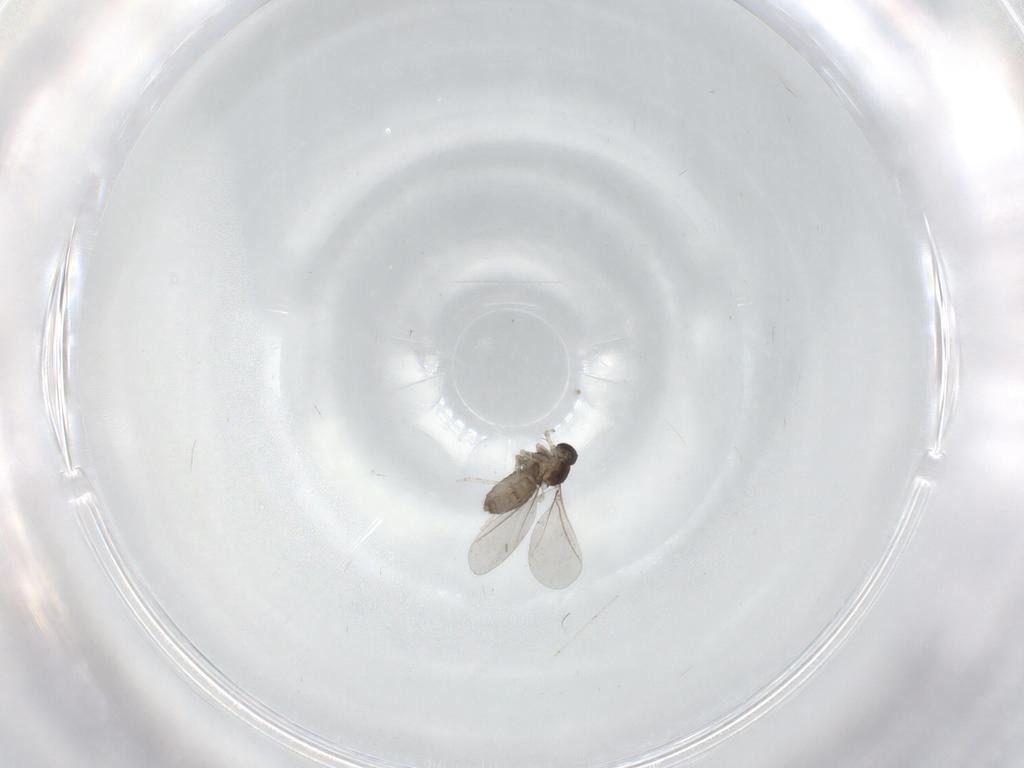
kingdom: Animalia
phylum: Arthropoda
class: Insecta
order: Diptera
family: Cecidomyiidae
